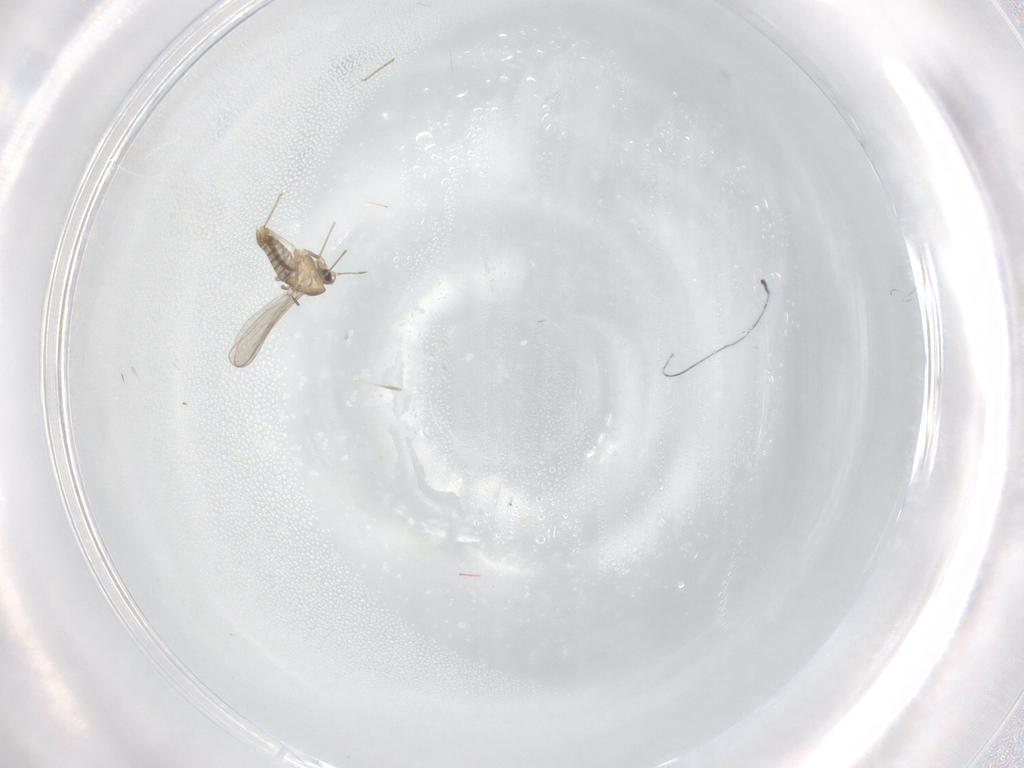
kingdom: Animalia
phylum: Arthropoda
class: Insecta
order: Diptera
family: Chironomidae
